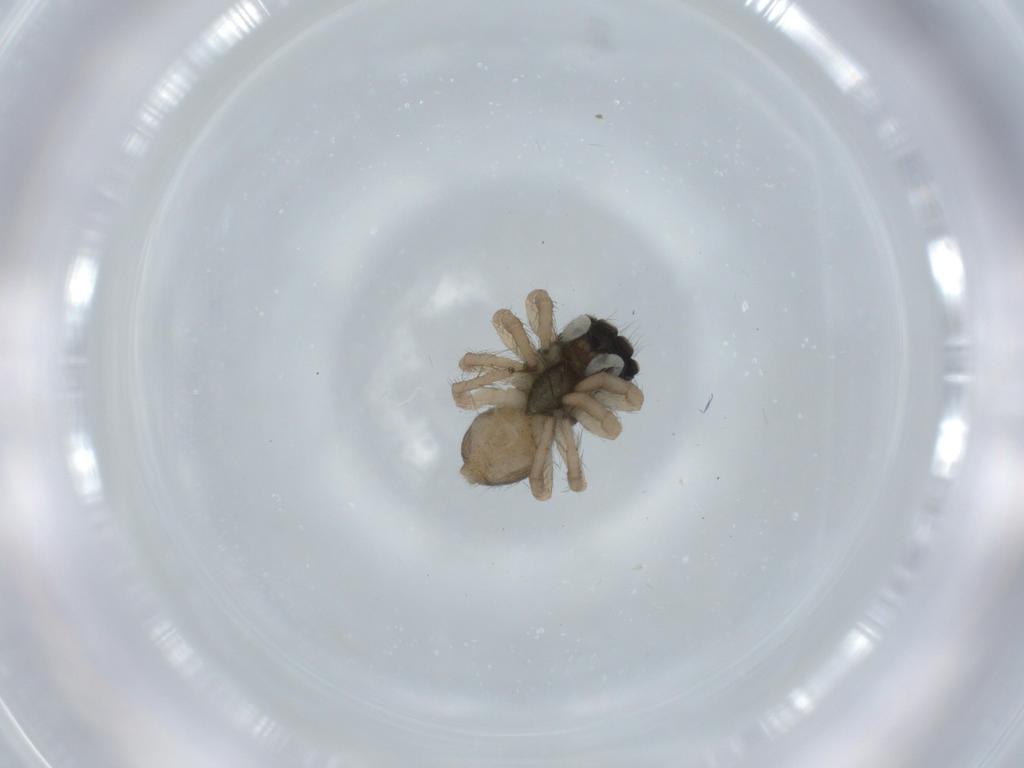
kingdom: Animalia
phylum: Arthropoda
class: Arachnida
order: Araneae
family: Salticidae
